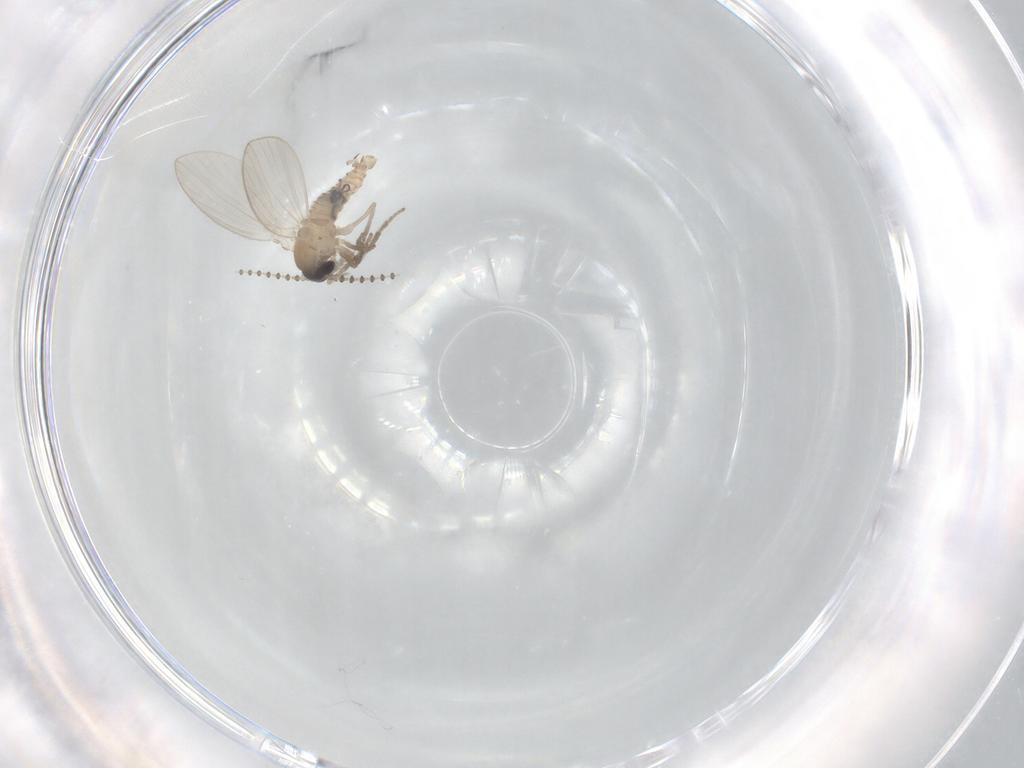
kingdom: Animalia
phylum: Arthropoda
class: Insecta
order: Diptera
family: Psychodidae
